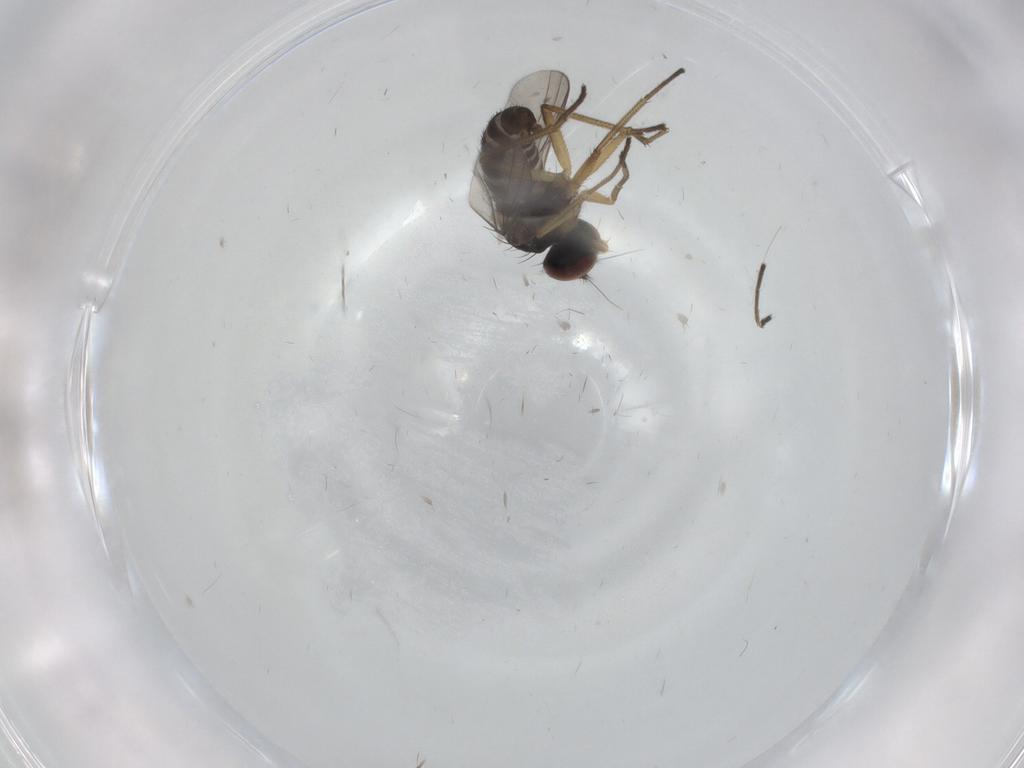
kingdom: Animalia
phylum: Arthropoda
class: Insecta
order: Diptera
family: Dolichopodidae
